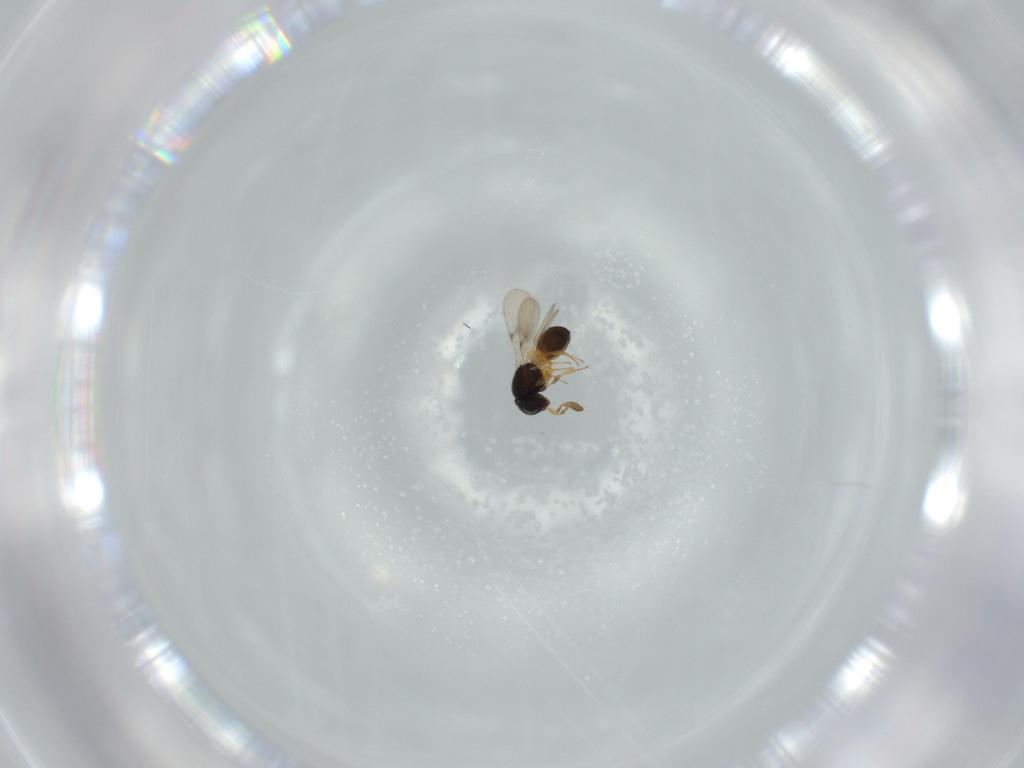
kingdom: Animalia
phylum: Arthropoda
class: Insecta
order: Hymenoptera
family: Scelionidae
